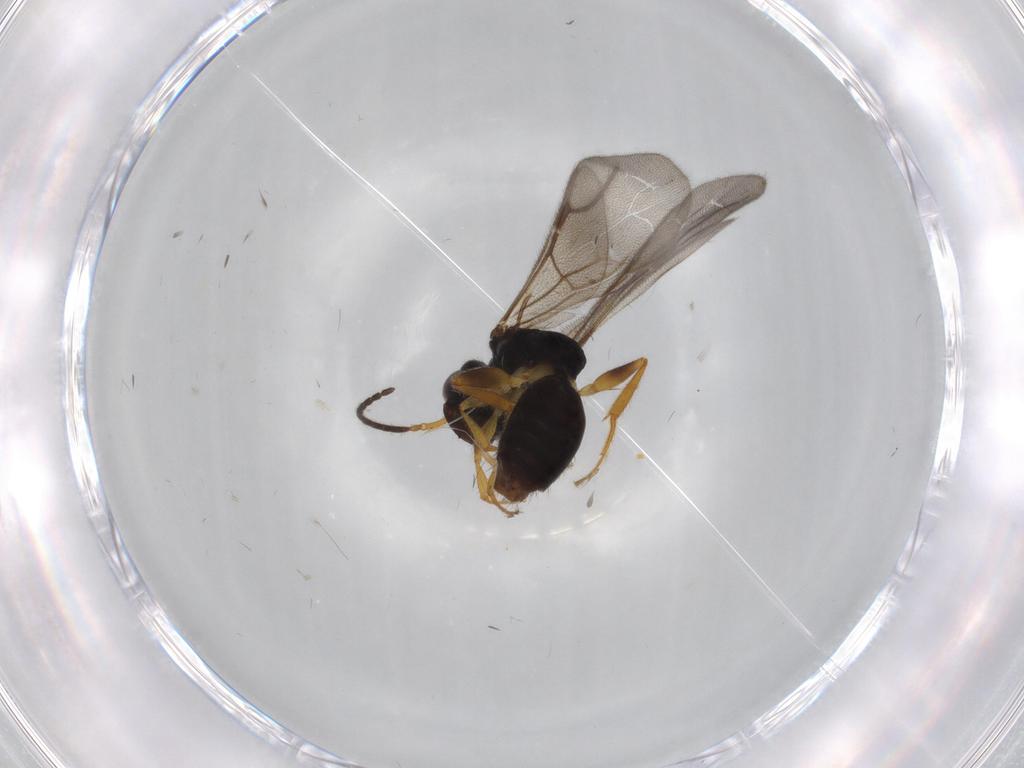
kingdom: Animalia
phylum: Arthropoda
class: Insecta
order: Hymenoptera
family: Bethylidae
